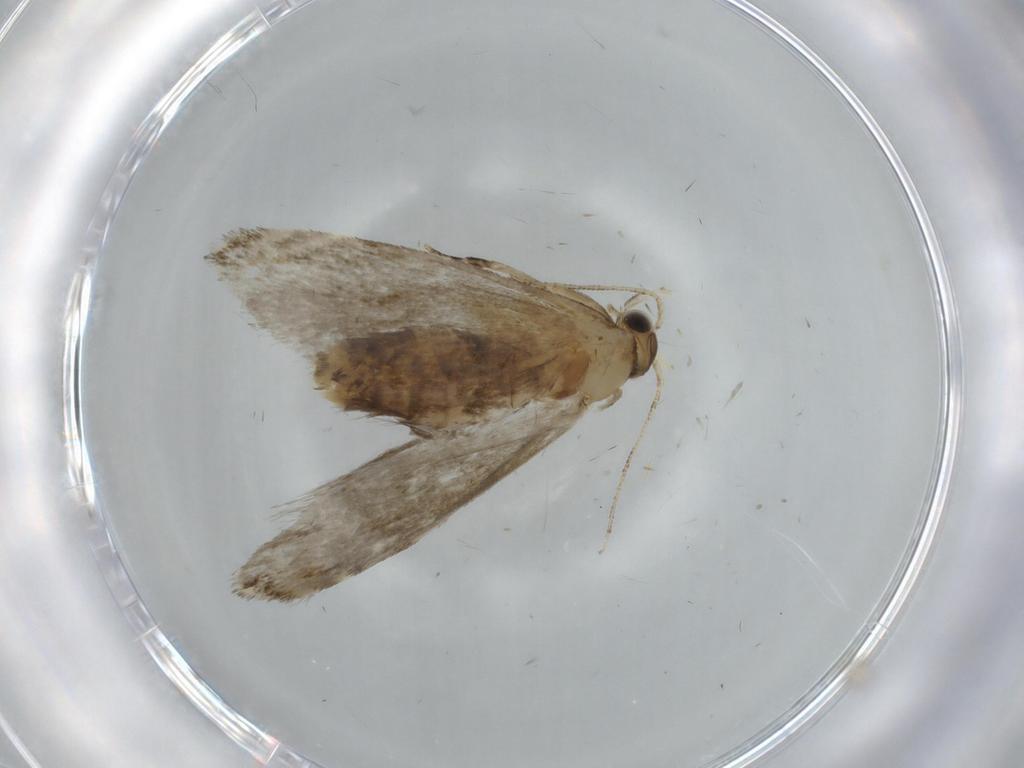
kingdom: Animalia
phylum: Arthropoda
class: Insecta
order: Lepidoptera
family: Tineidae
